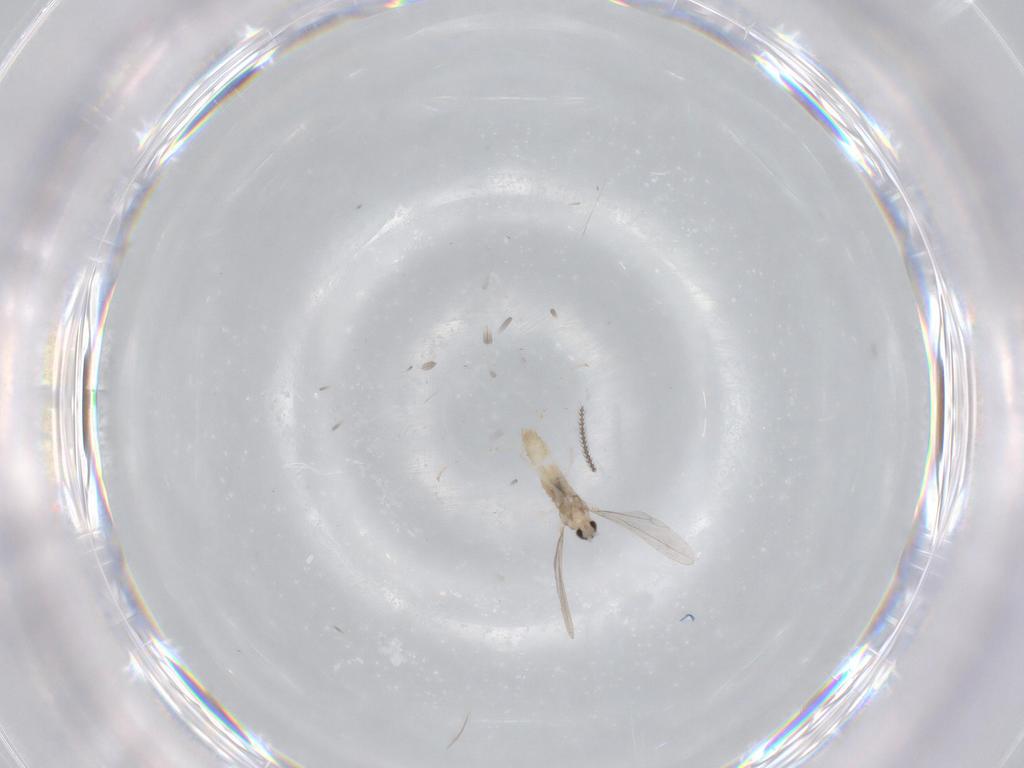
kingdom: Animalia
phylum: Arthropoda
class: Insecta
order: Diptera
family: Cecidomyiidae
